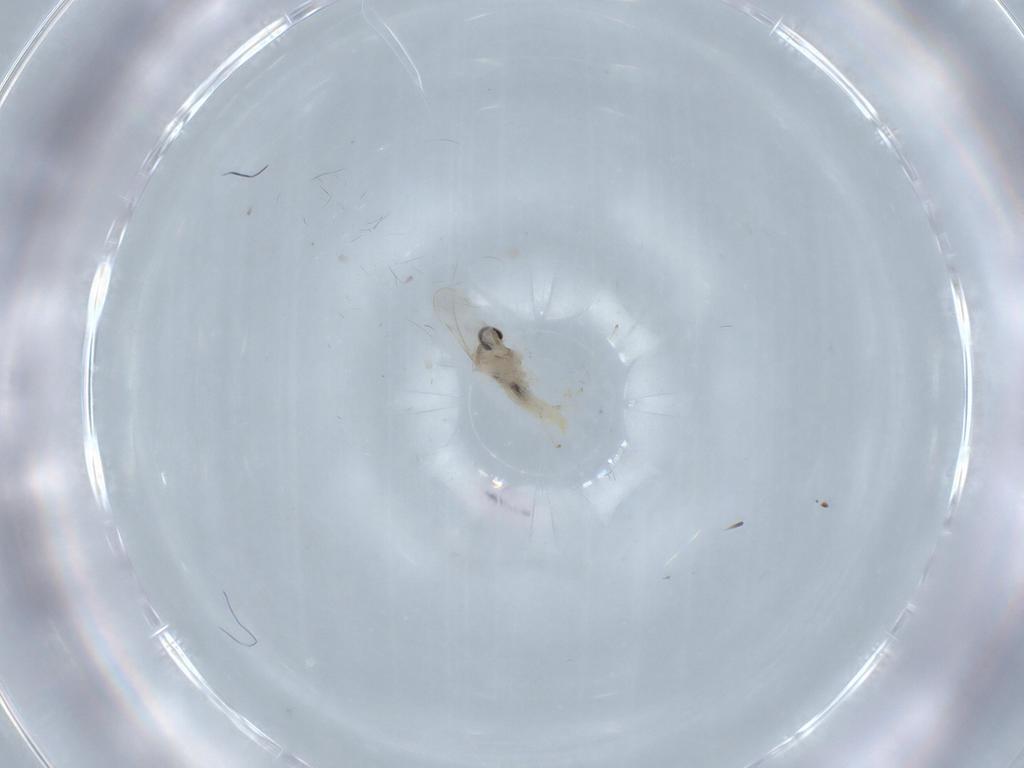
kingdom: Animalia
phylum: Arthropoda
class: Insecta
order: Diptera
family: Cecidomyiidae
